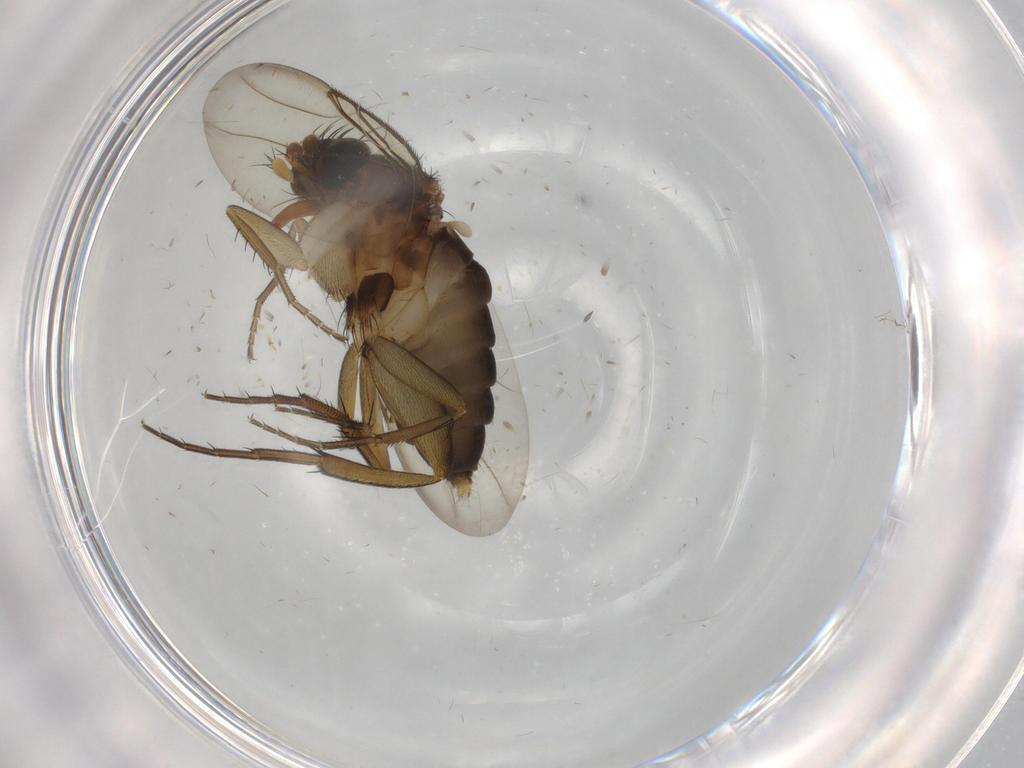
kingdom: Animalia
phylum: Arthropoda
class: Insecta
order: Diptera
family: Phoridae
